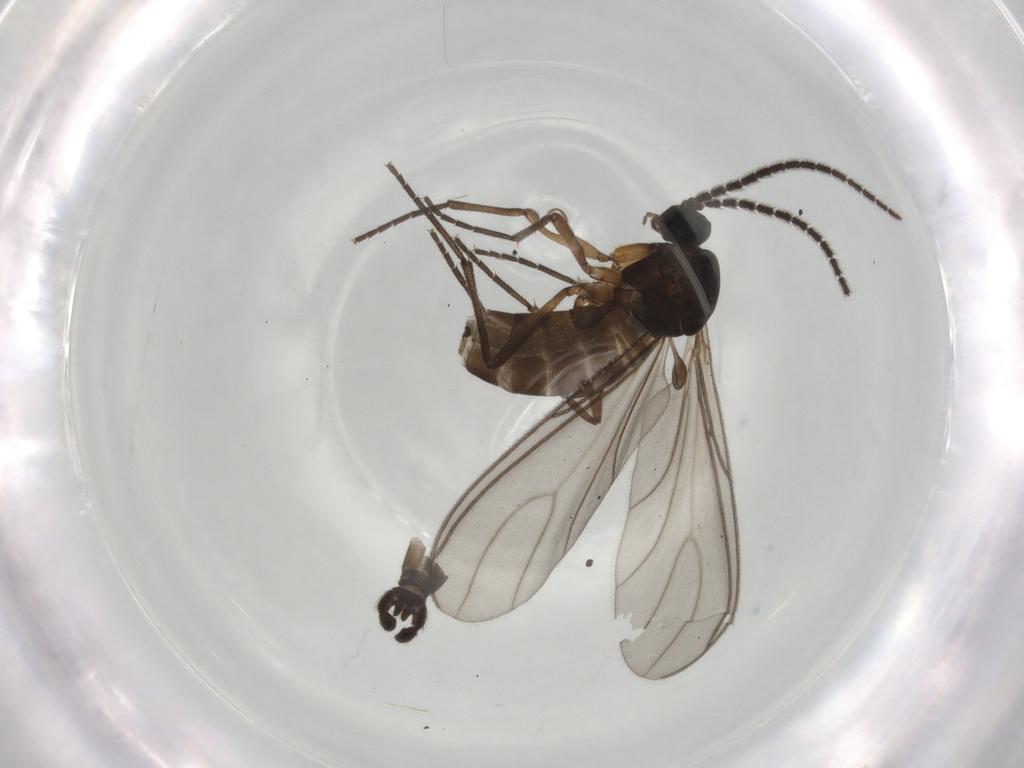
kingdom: Animalia
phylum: Arthropoda
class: Insecta
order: Diptera
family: Sciaridae
